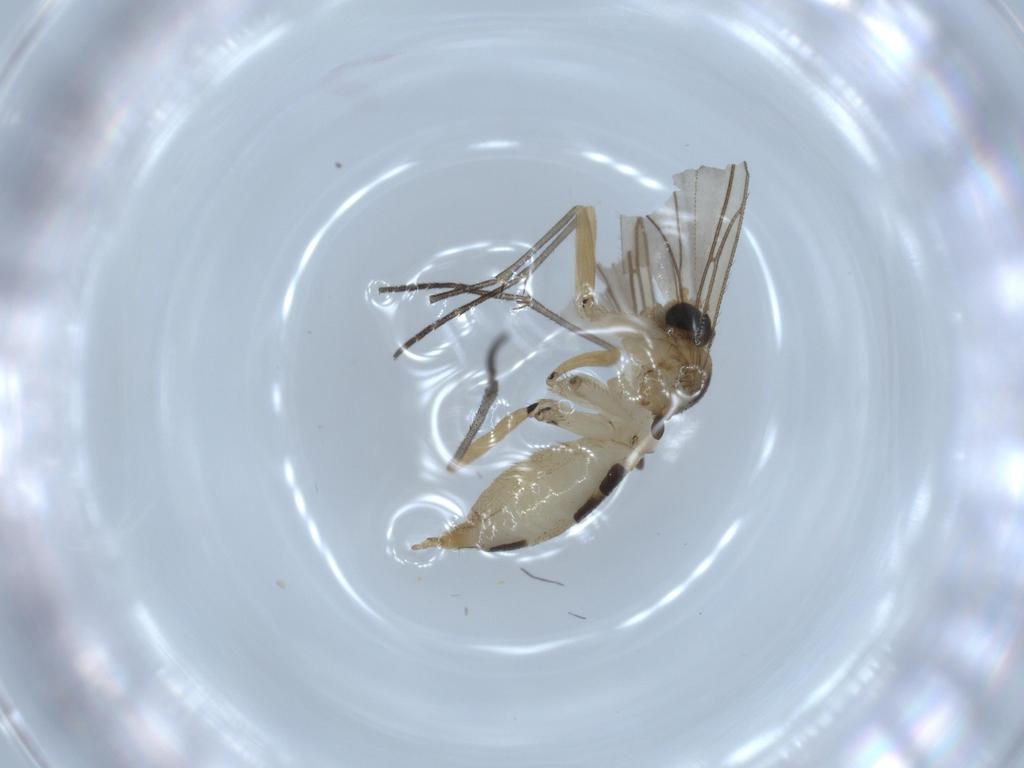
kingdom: Animalia
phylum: Arthropoda
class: Insecta
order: Diptera
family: Sciaridae
